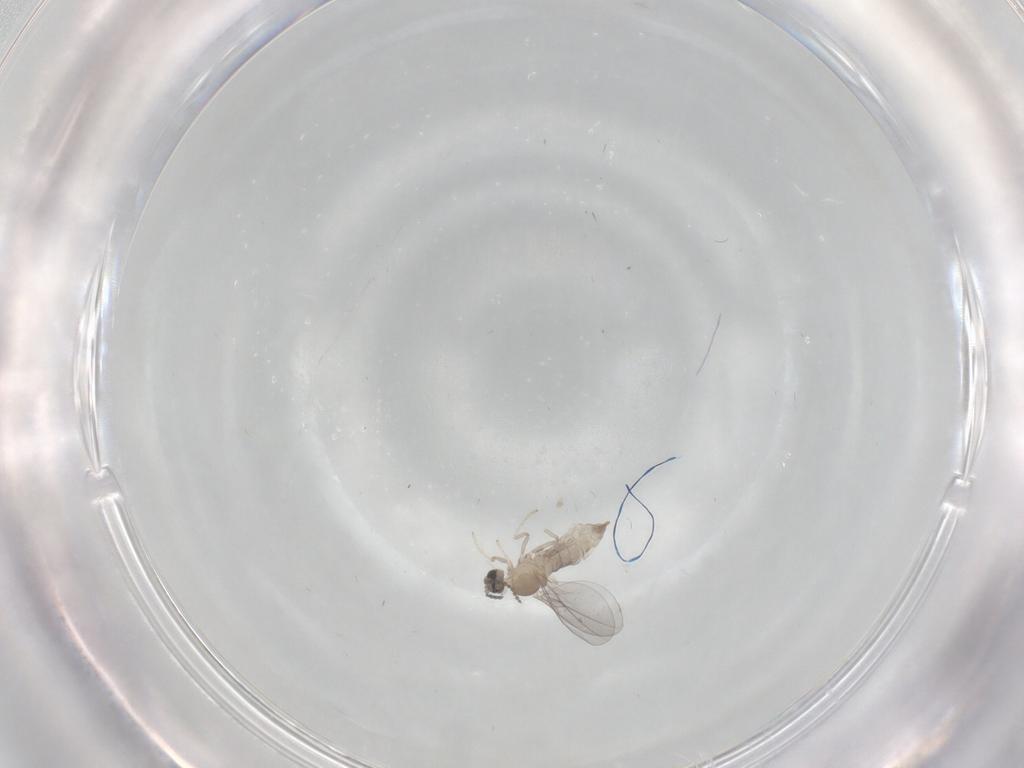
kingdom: Animalia
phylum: Arthropoda
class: Insecta
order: Diptera
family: Cecidomyiidae
